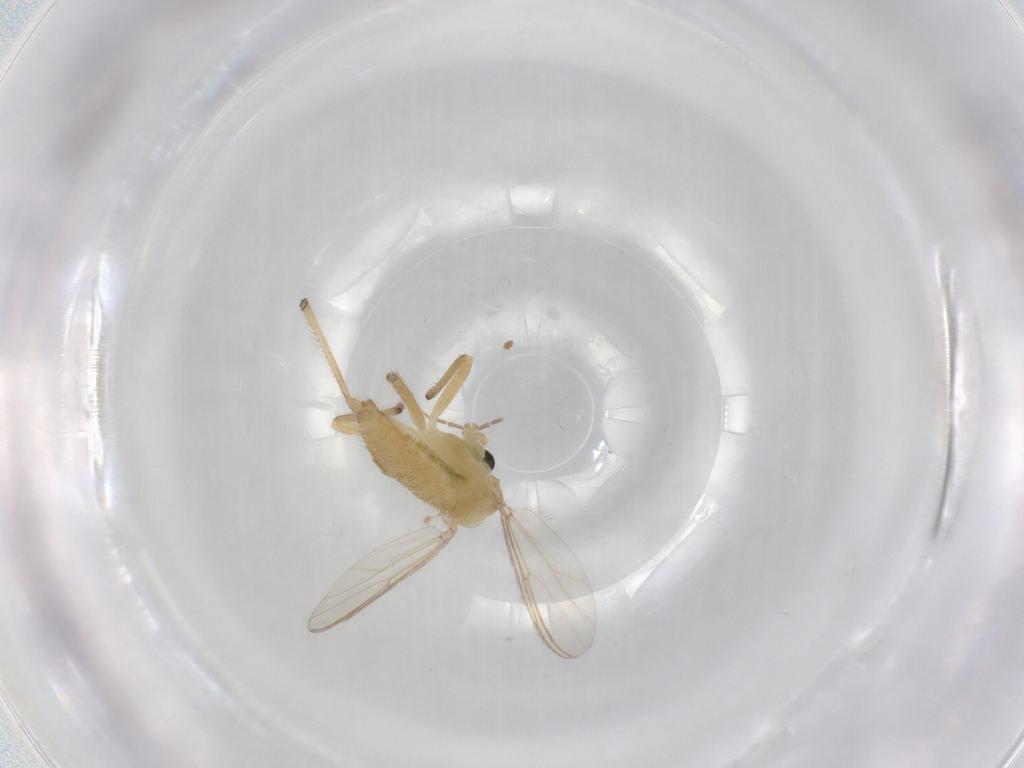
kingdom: Animalia
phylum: Arthropoda
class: Insecta
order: Diptera
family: Chironomidae
